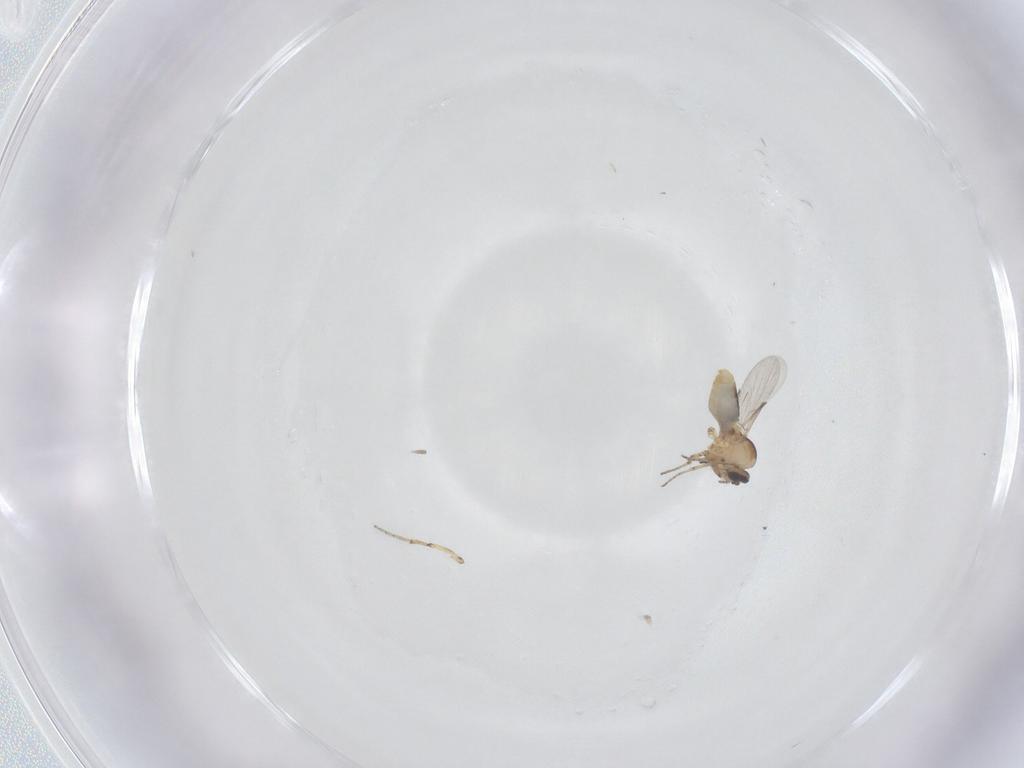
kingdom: Animalia
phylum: Arthropoda
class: Insecta
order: Diptera
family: Ceratopogonidae
